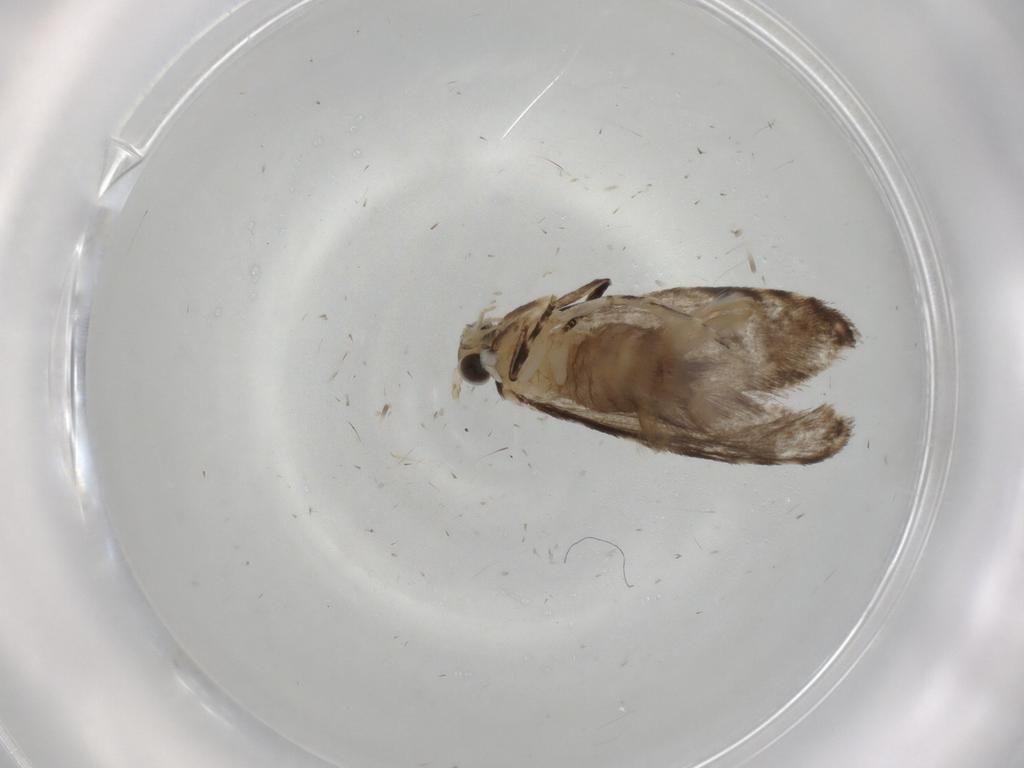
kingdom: Animalia
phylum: Arthropoda
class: Insecta
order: Lepidoptera
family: Tineidae
